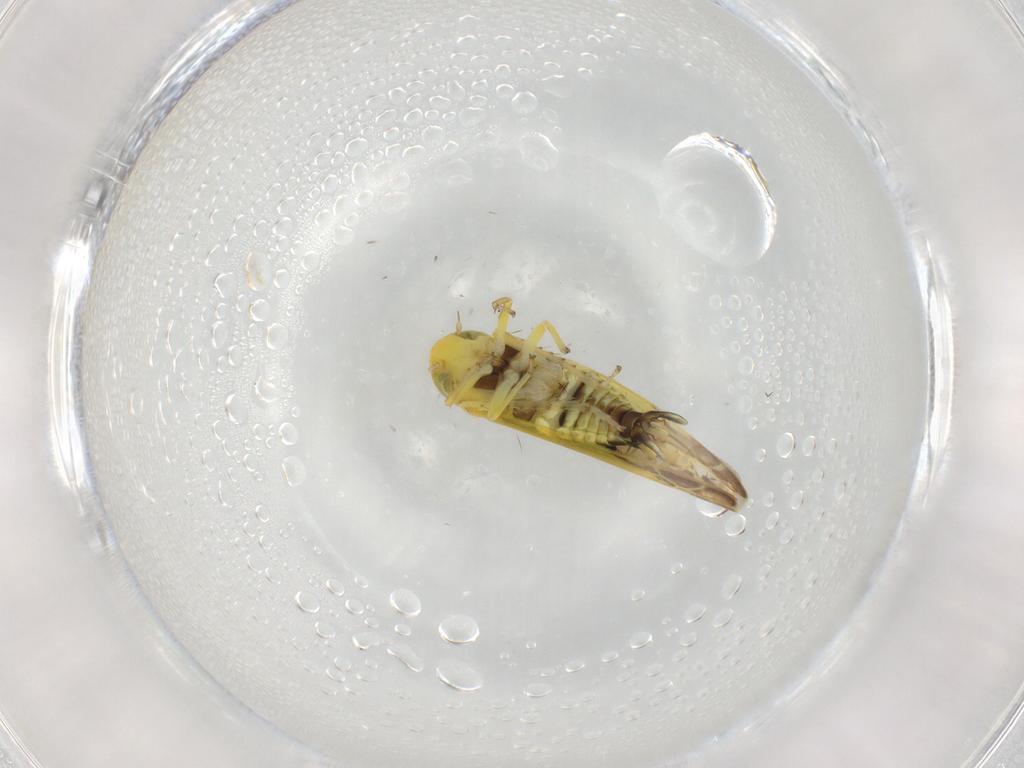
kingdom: Animalia
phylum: Arthropoda
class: Insecta
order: Hemiptera
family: Cicadellidae
